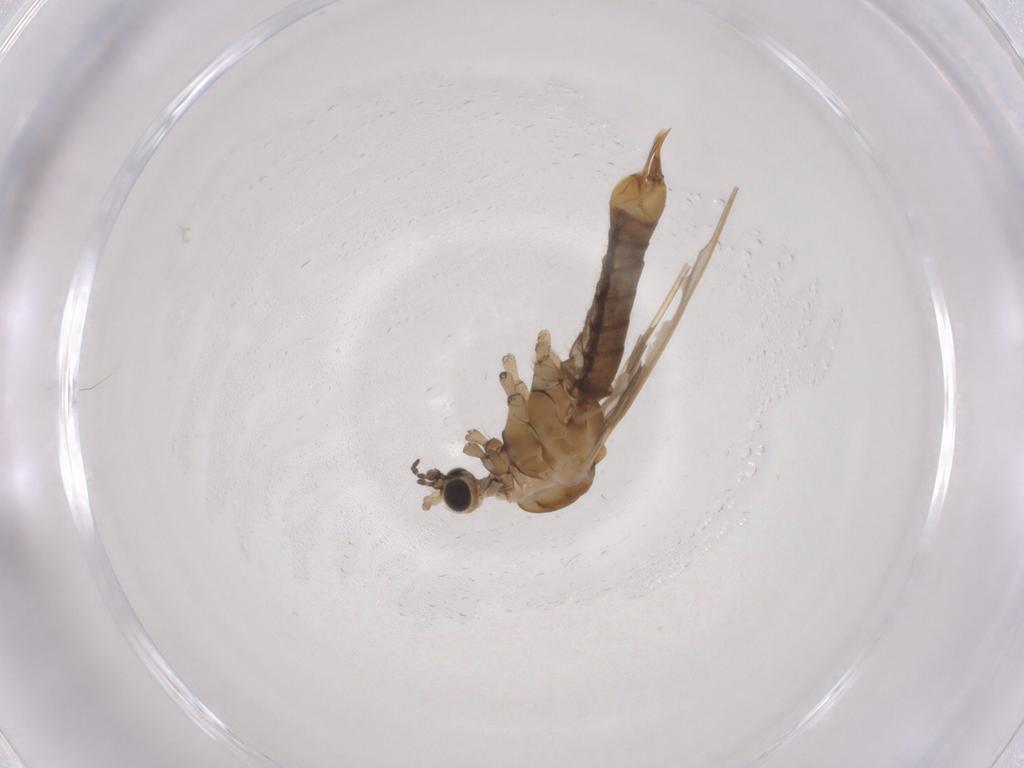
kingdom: Animalia
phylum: Arthropoda
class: Insecta
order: Diptera
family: Limoniidae
